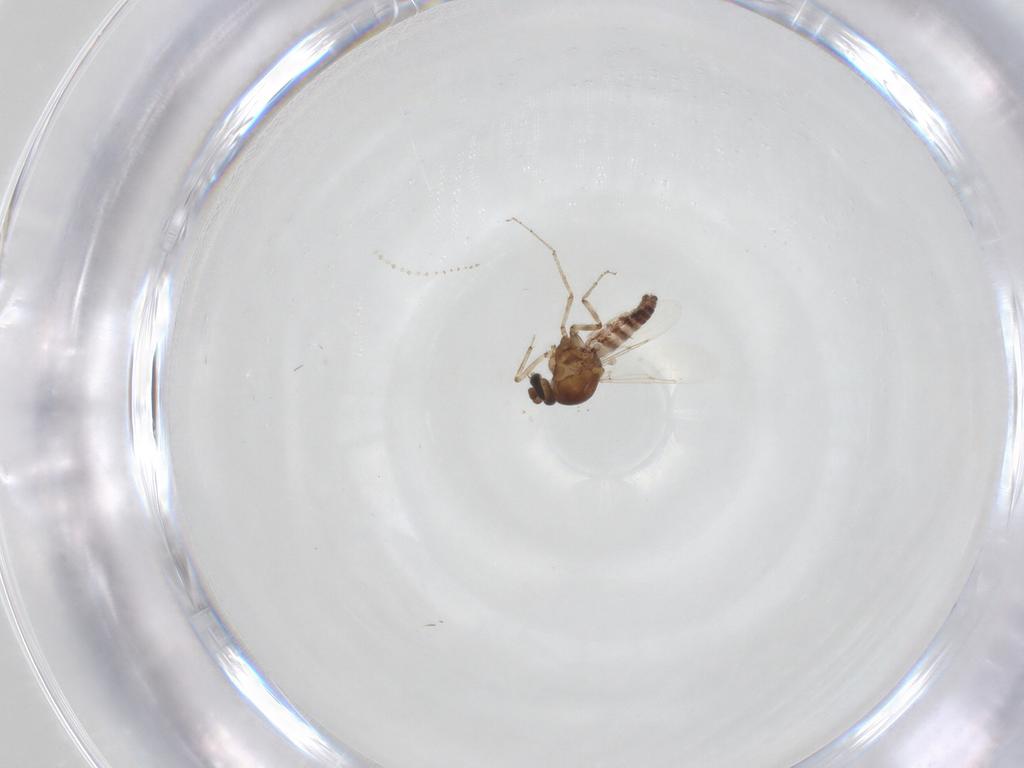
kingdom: Animalia
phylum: Arthropoda
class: Insecta
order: Diptera
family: Cecidomyiidae
